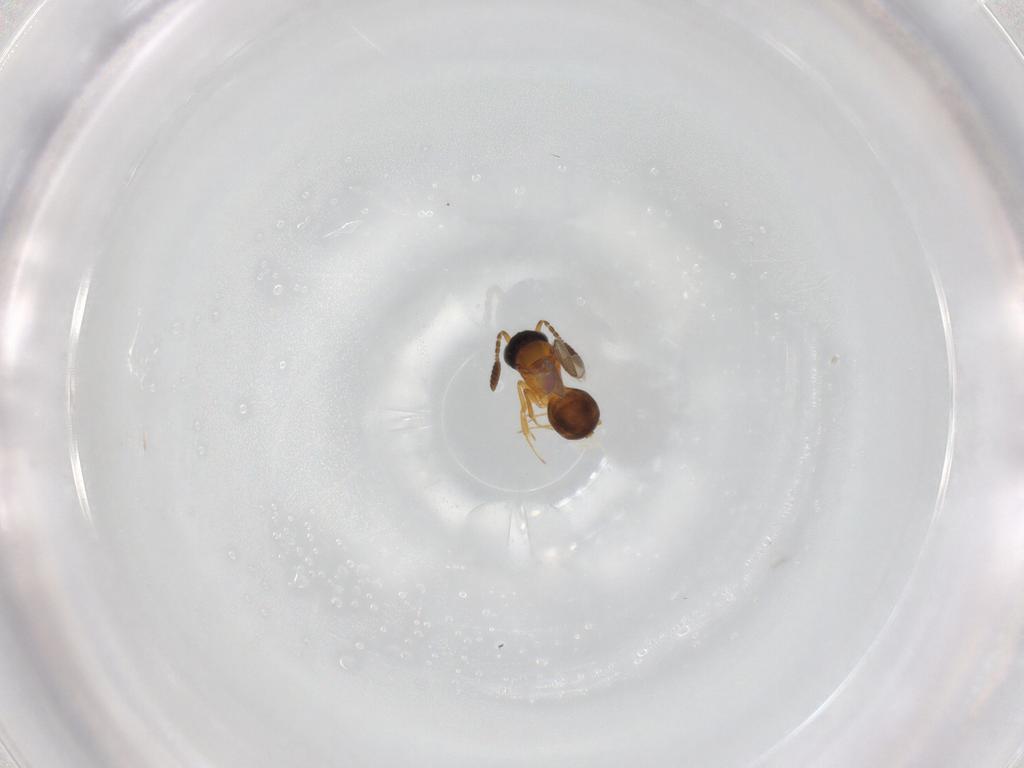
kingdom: Animalia
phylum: Arthropoda
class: Insecta
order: Hymenoptera
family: Scelionidae
